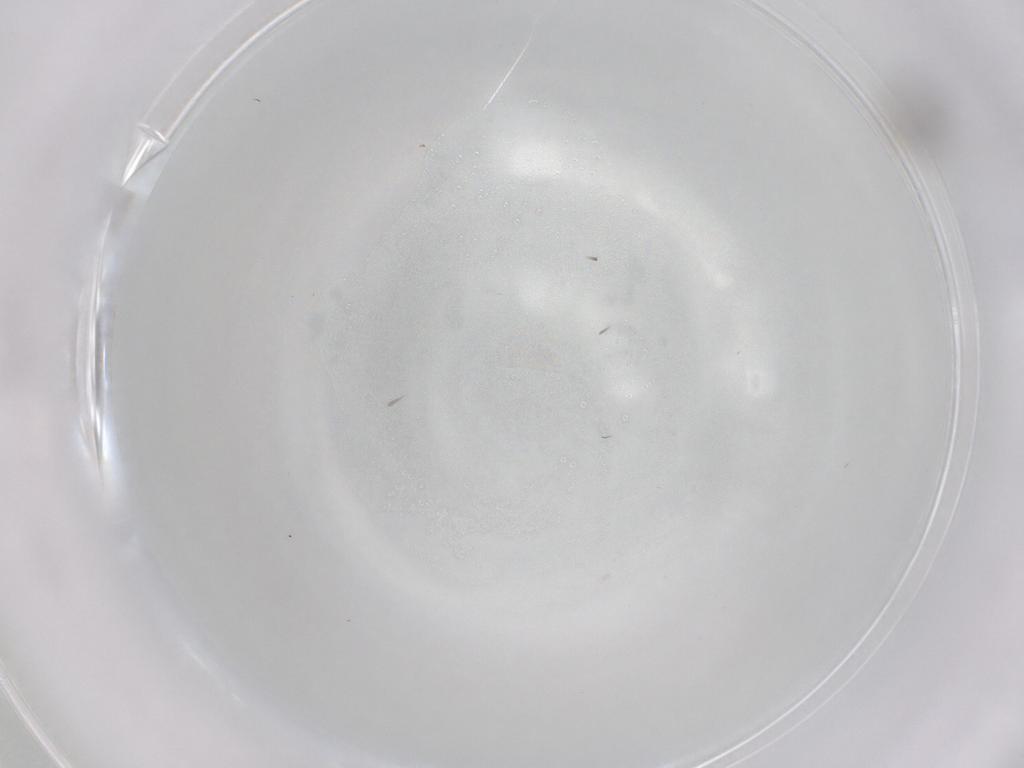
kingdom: Animalia
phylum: Arthropoda
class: Insecta
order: Diptera
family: Cecidomyiidae
